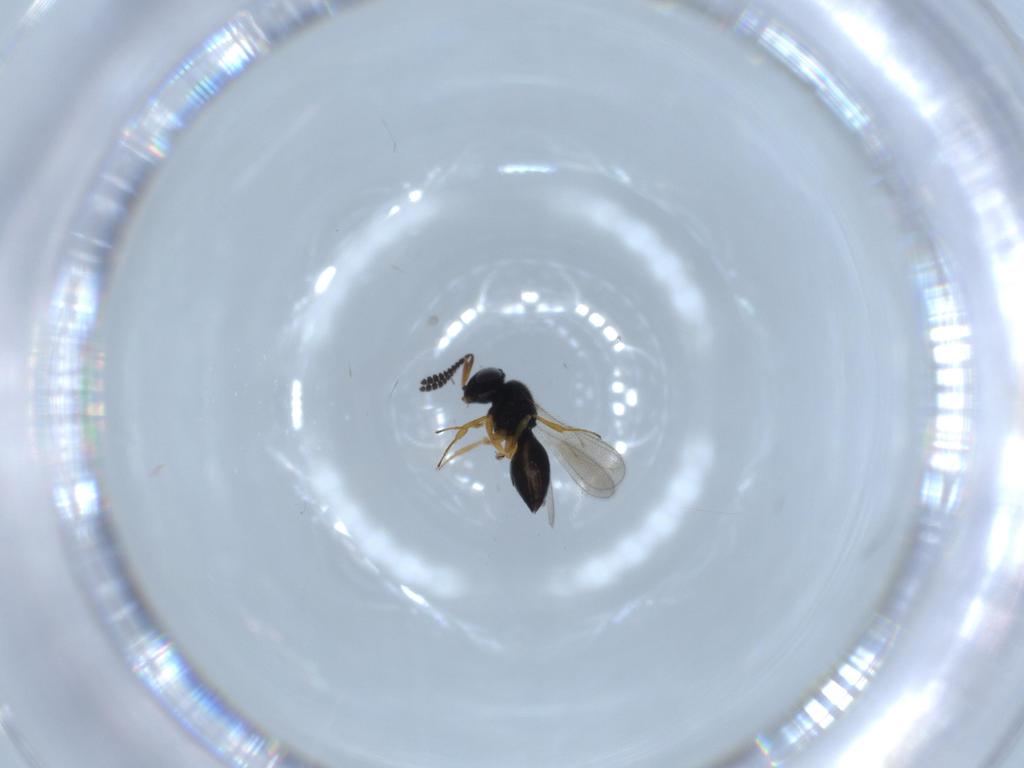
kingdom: Animalia
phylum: Arthropoda
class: Insecta
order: Hymenoptera
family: Scelionidae
